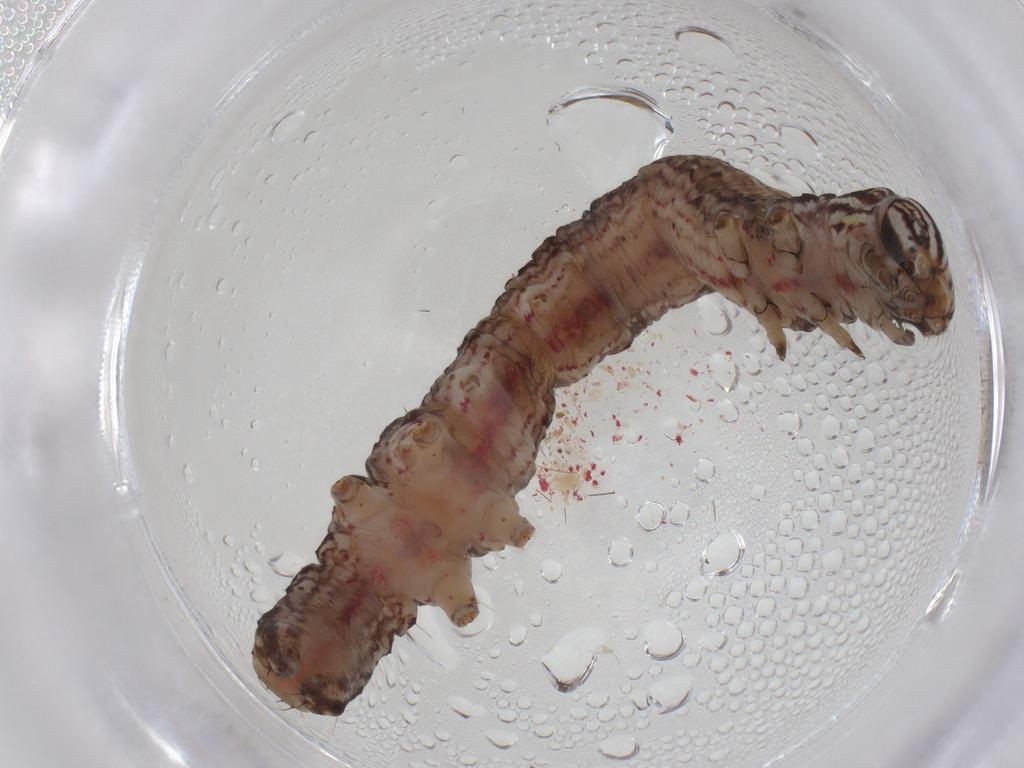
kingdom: Animalia
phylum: Arthropoda
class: Insecta
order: Lepidoptera
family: Erebidae
